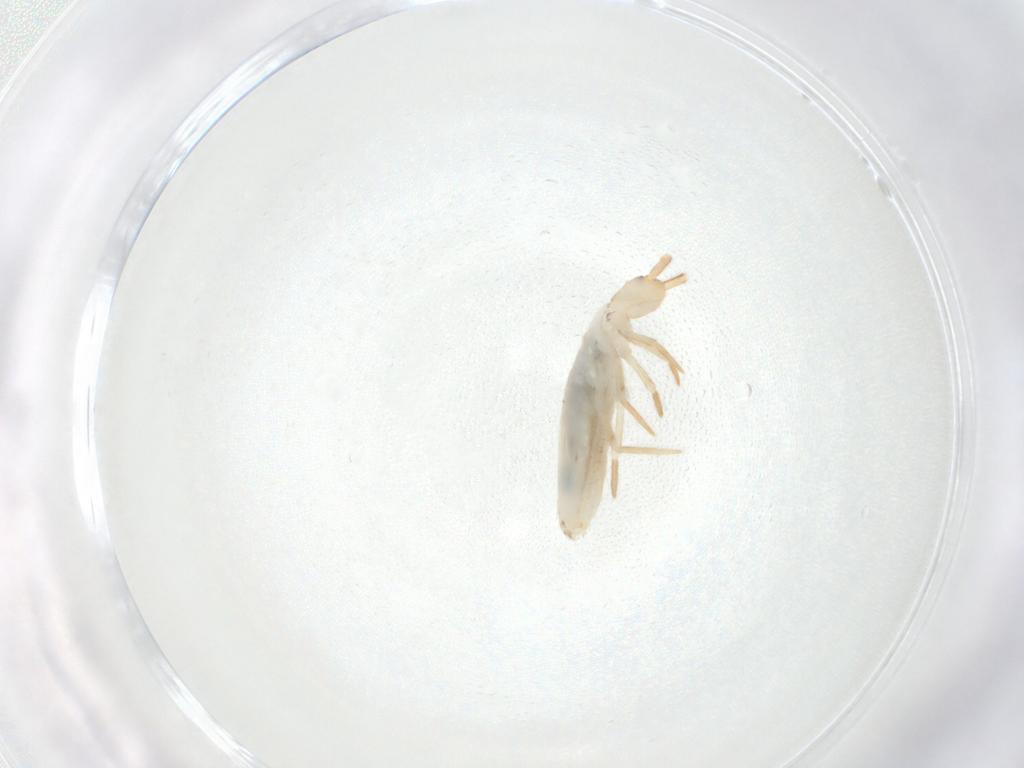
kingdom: Animalia
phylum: Arthropoda
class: Collembola
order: Entomobryomorpha
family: Entomobryidae
